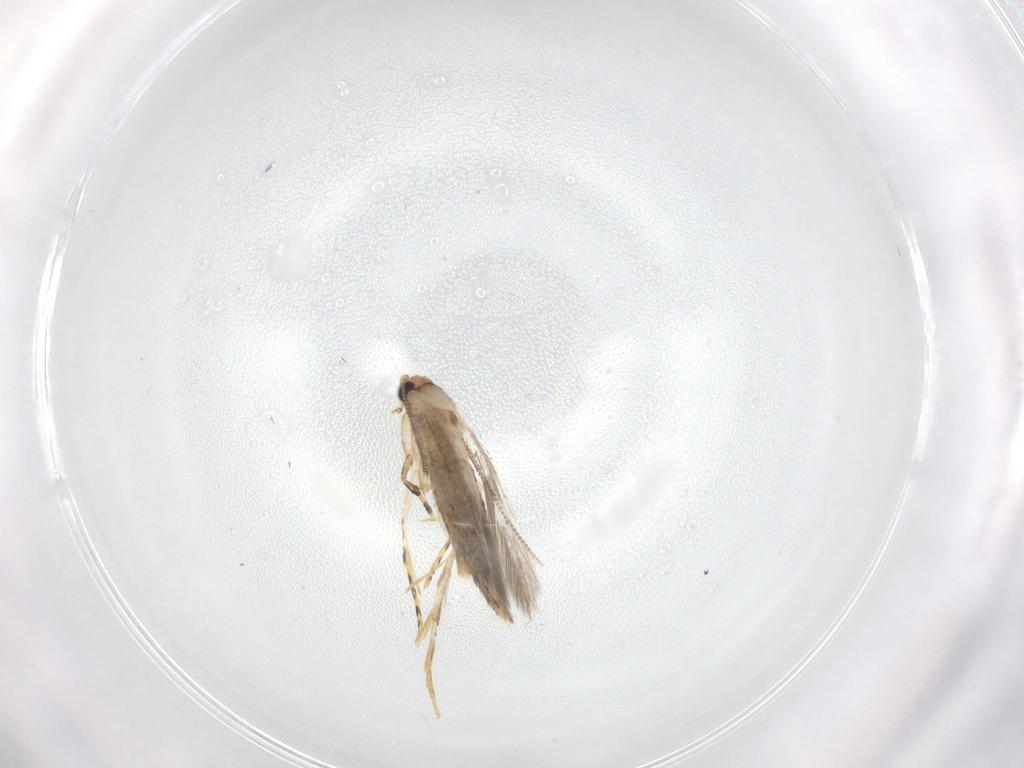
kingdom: Animalia
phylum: Arthropoda
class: Insecta
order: Lepidoptera
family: Tineidae
